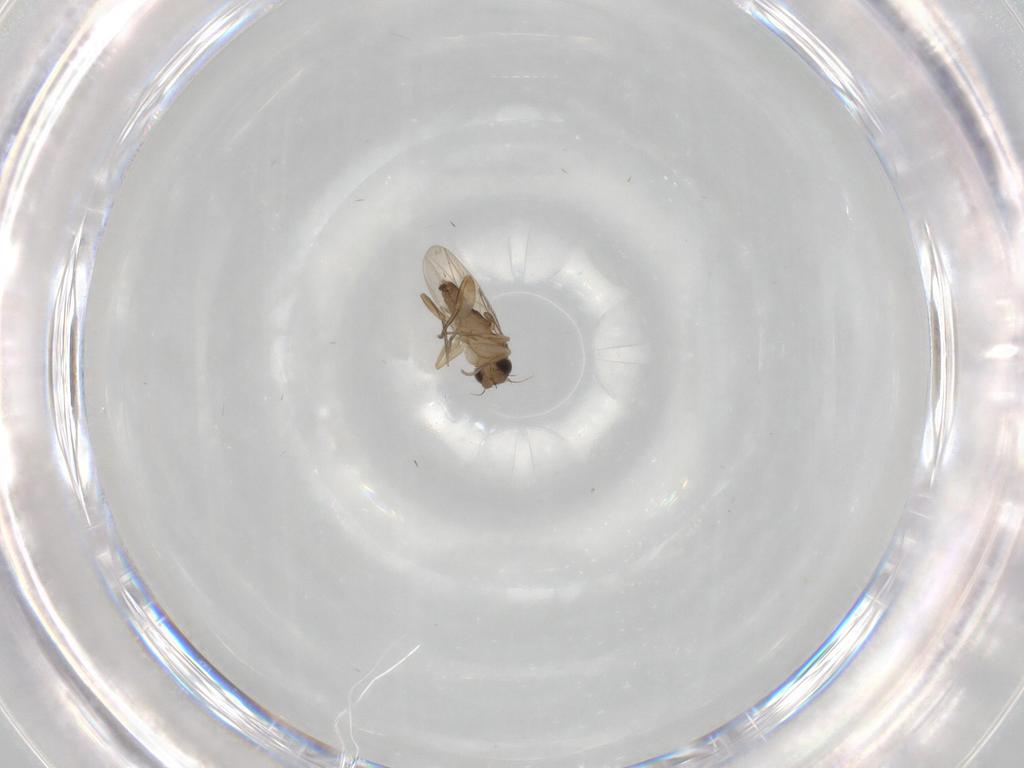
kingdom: Animalia
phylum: Arthropoda
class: Insecta
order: Diptera
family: Phoridae
